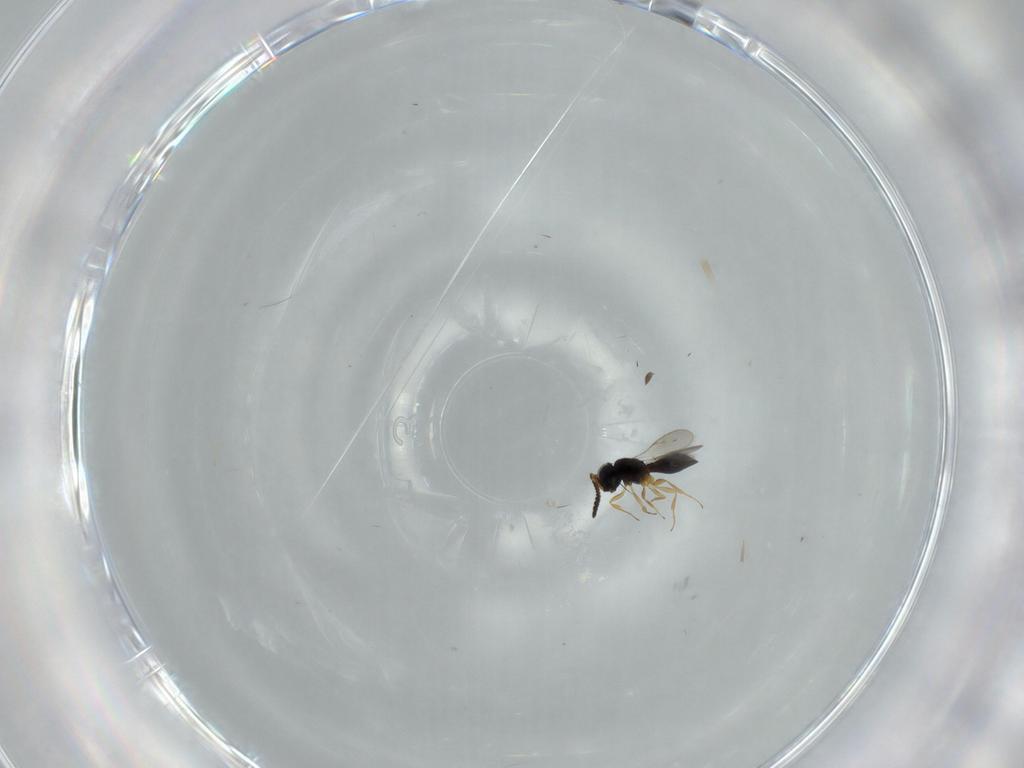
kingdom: Animalia
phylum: Arthropoda
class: Insecta
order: Hymenoptera
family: Scelionidae
